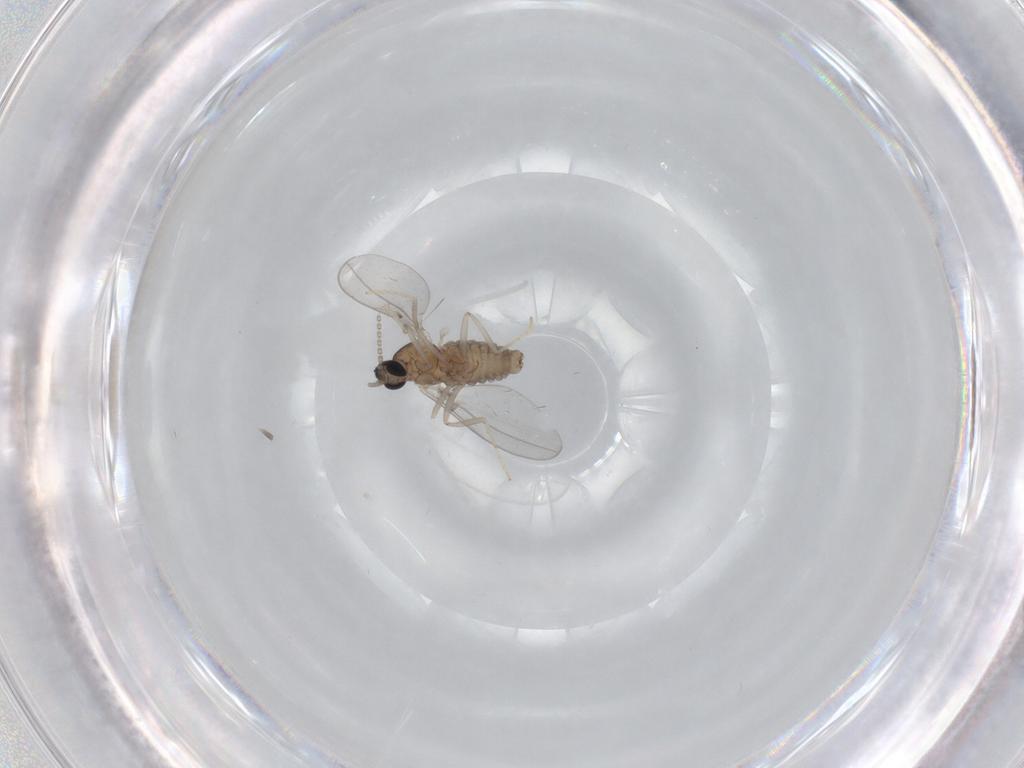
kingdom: Animalia
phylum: Arthropoda
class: Insecta
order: Diptera
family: Cecidomyiidae
